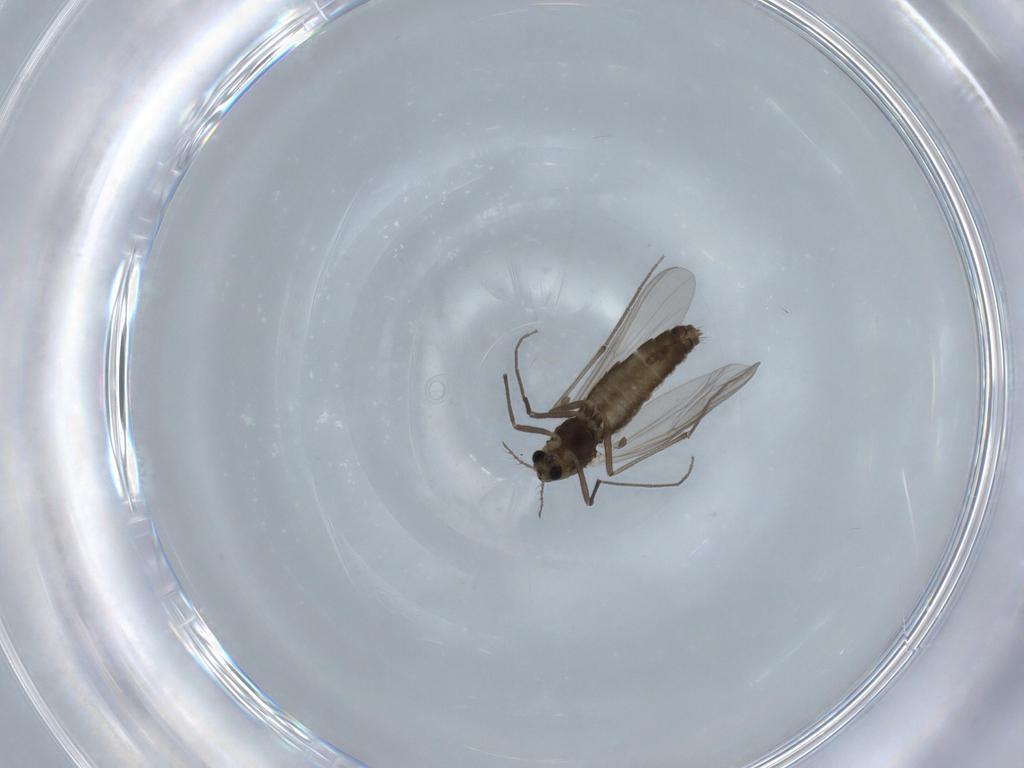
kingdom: Animalia
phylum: Arthropoda
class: Insecta
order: Diptera
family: Chironomidae
